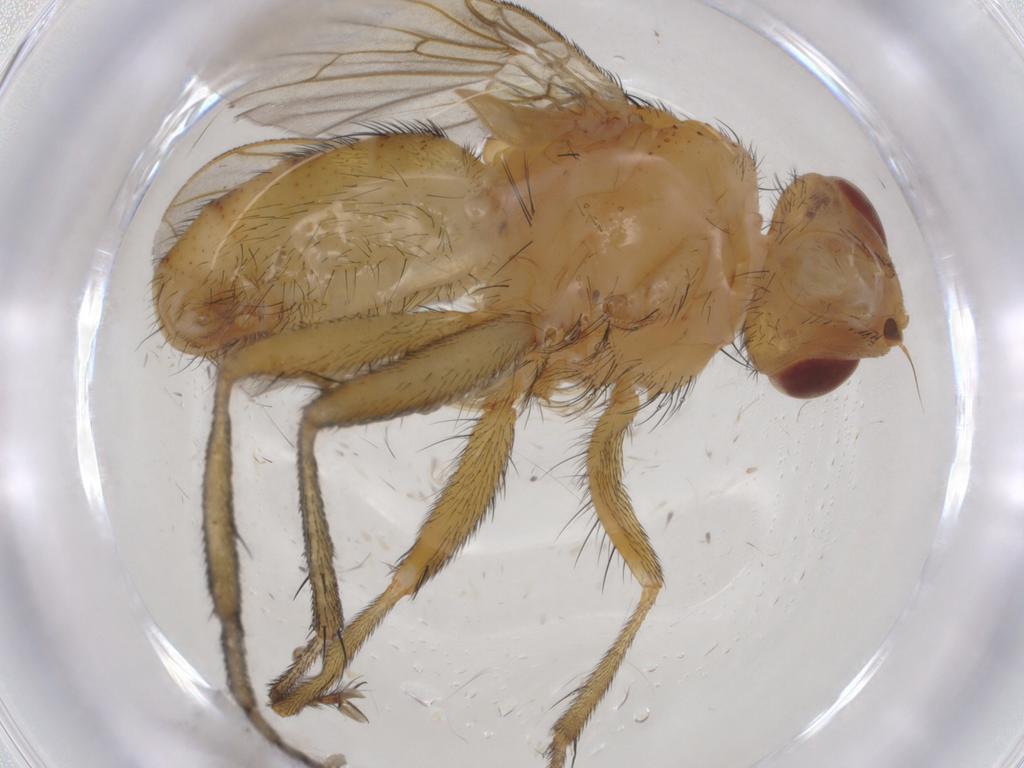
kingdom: Animalia
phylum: Arthropoda
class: Insecta
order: Diptera
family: Tachinidae
